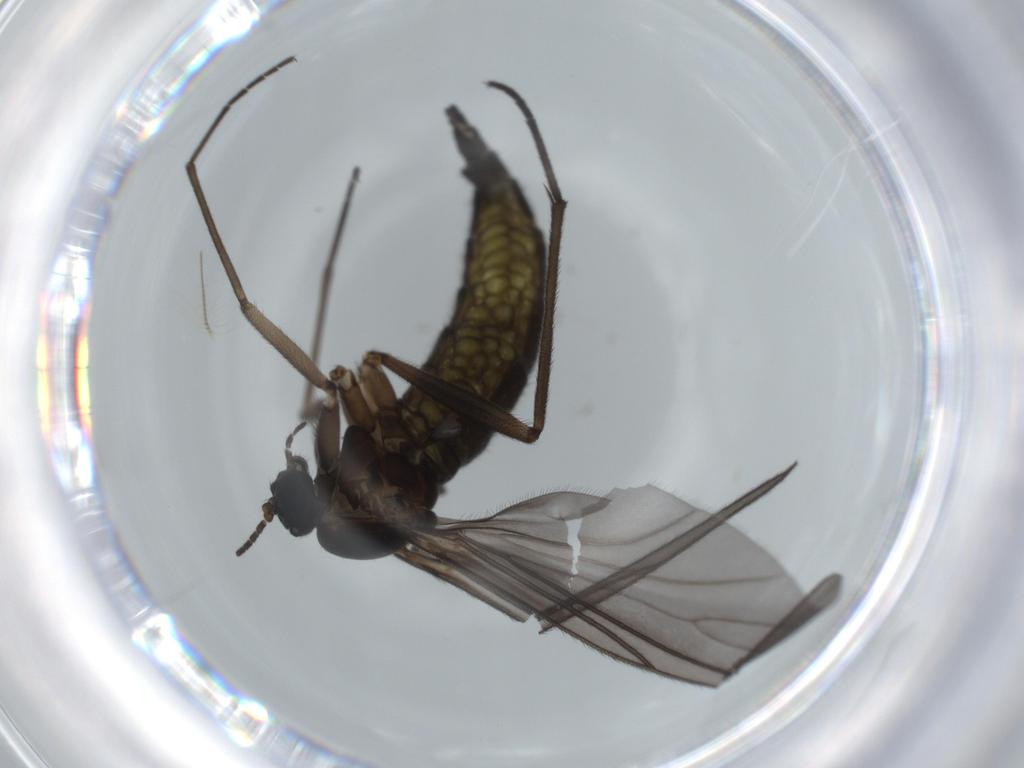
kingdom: Animalia
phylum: Arthropoda
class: Insecta
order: Diptera
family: Sciaridae
